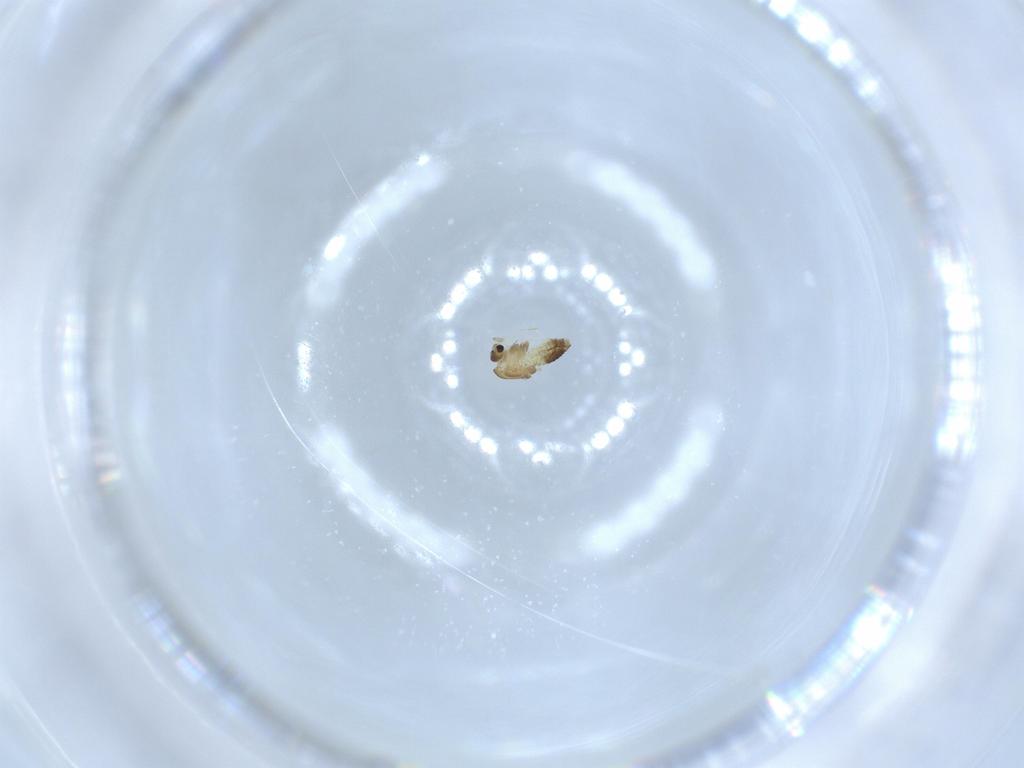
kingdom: Animalia
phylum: Arthropoda
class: Insecta
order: Diptera
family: Chironomidae
